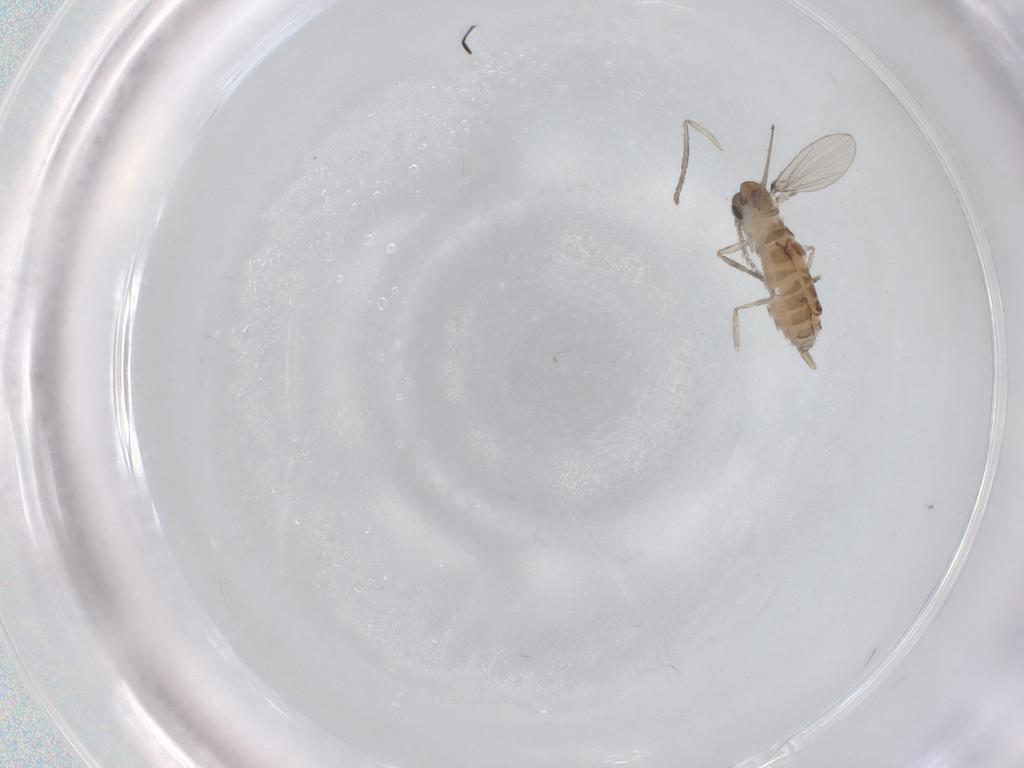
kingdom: Animalia
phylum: Arthropoda
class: Insecta
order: Diptera
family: Psychodidae
